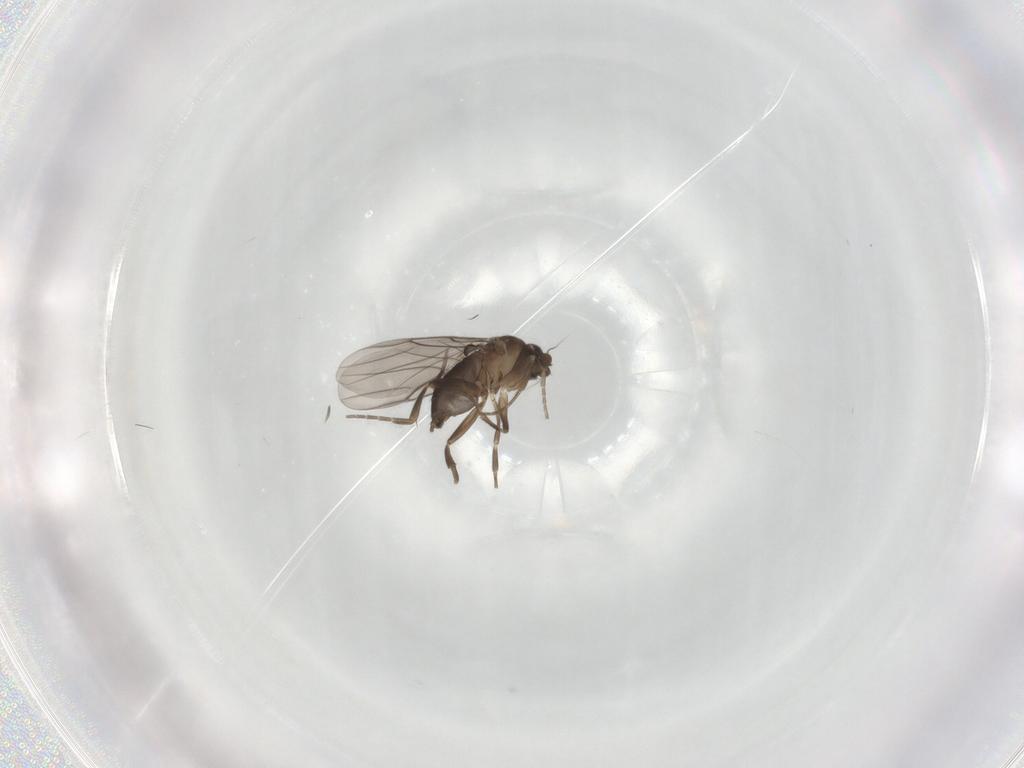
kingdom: Animalia
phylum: Arthropoda
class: Insecta
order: Diptera
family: Phoridae
